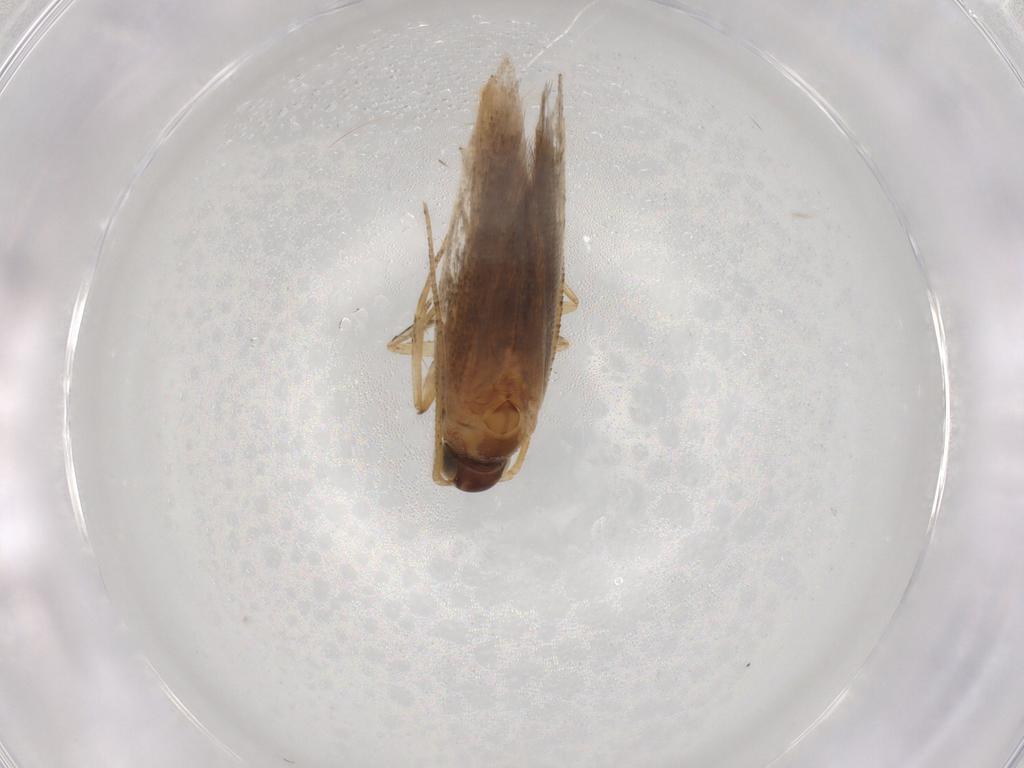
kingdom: Animalia
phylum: Arthropoda
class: Insecta
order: Lepidoptera
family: Plutellidae
